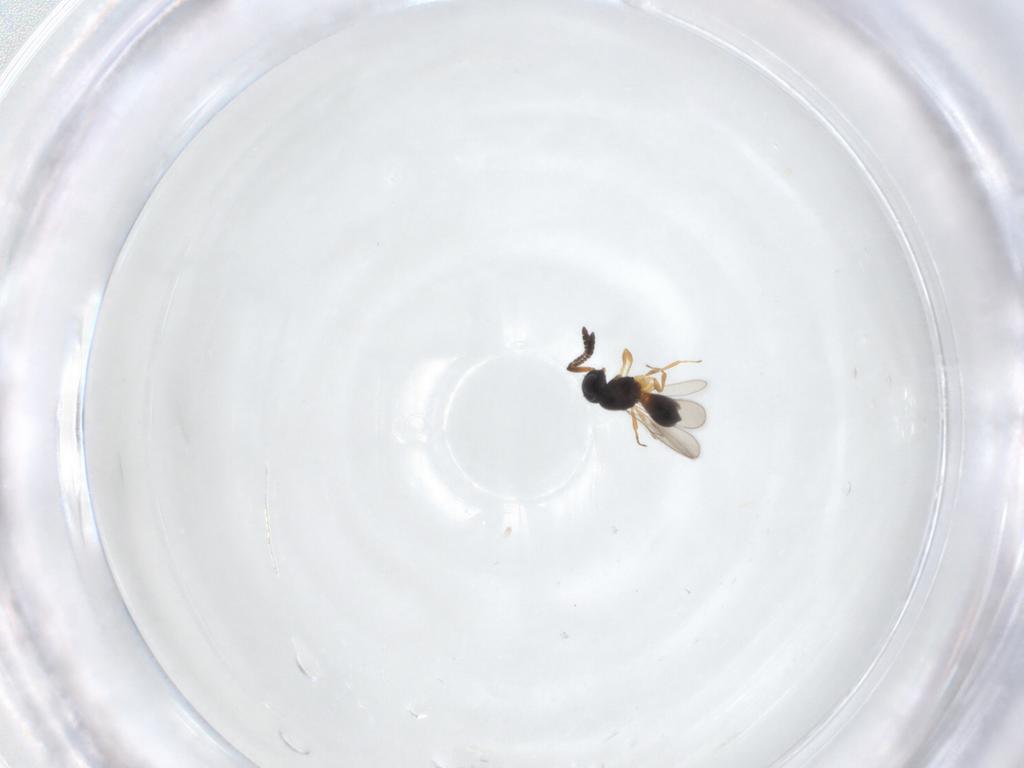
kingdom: Animalia
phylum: Arthropoda
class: Insecta
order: Hymenoptera
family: Scelionidae
